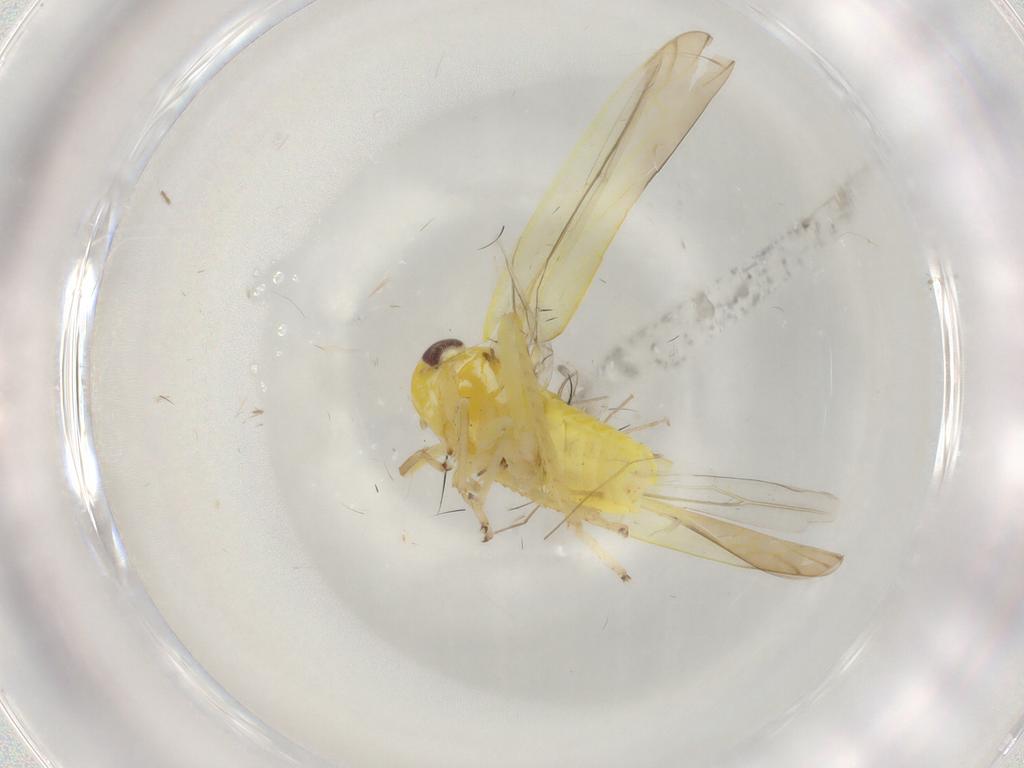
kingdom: Animalia
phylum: Arthropoda
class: Insecta
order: Hemiptera
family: Cicadellidae
